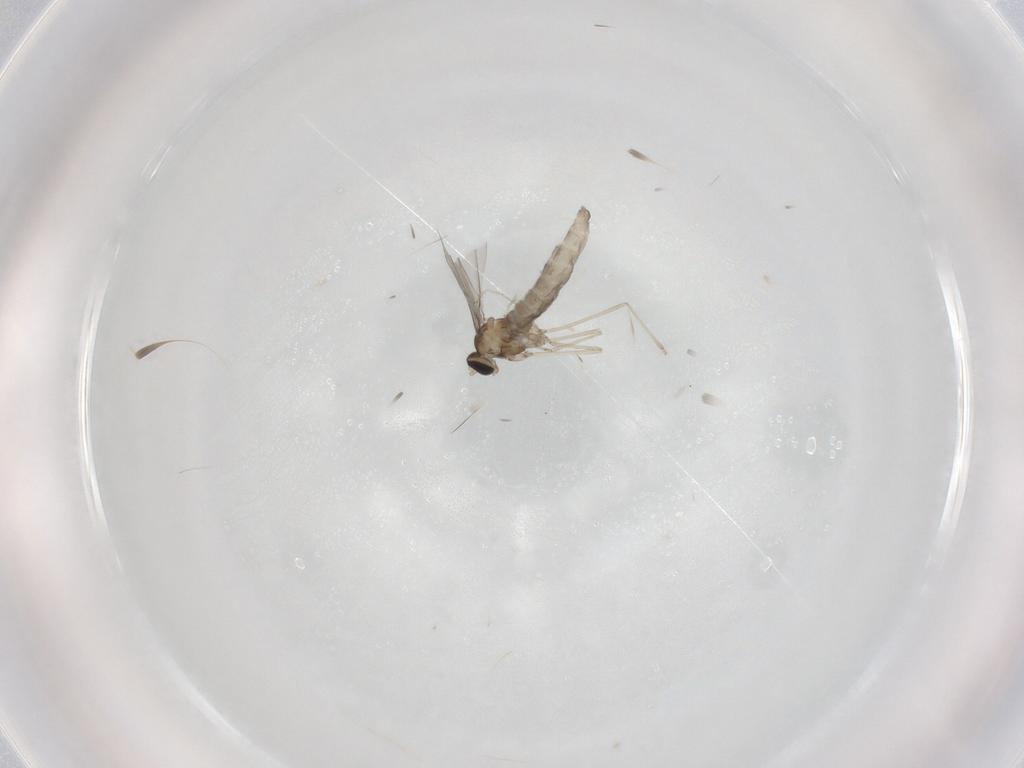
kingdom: Animalia
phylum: Arthropoda
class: Insecta
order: Diptera
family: Cecidomyiidae
